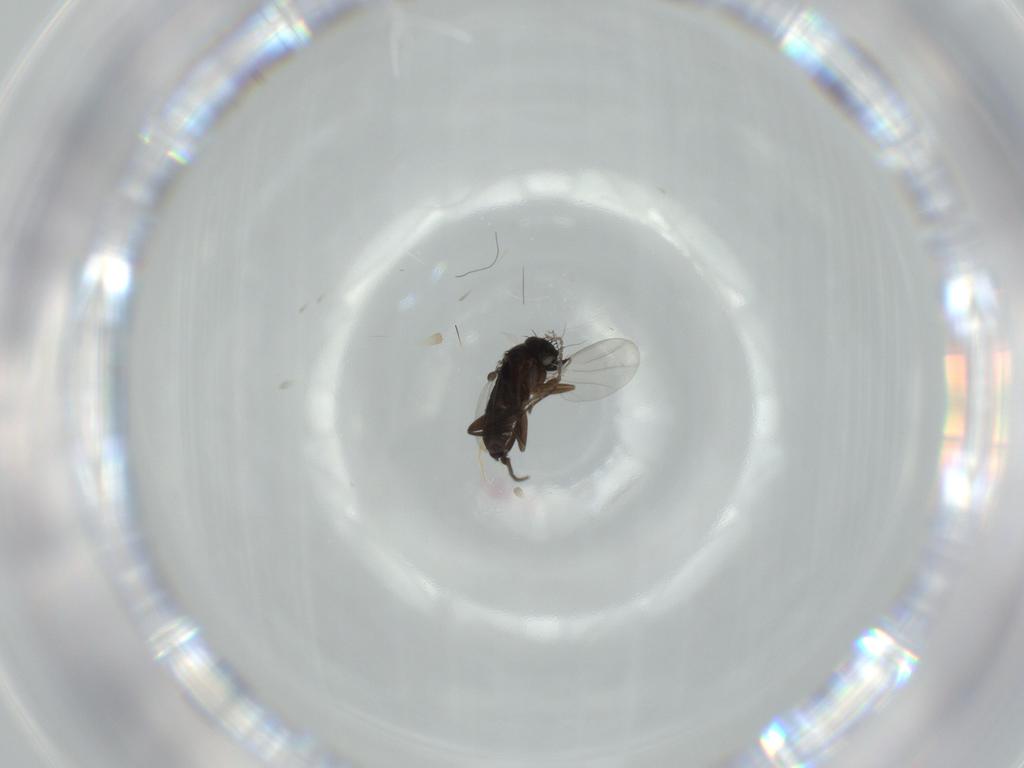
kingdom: Animalia
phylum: Arthropoda
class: Insecta
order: Diptera
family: Phoridae
